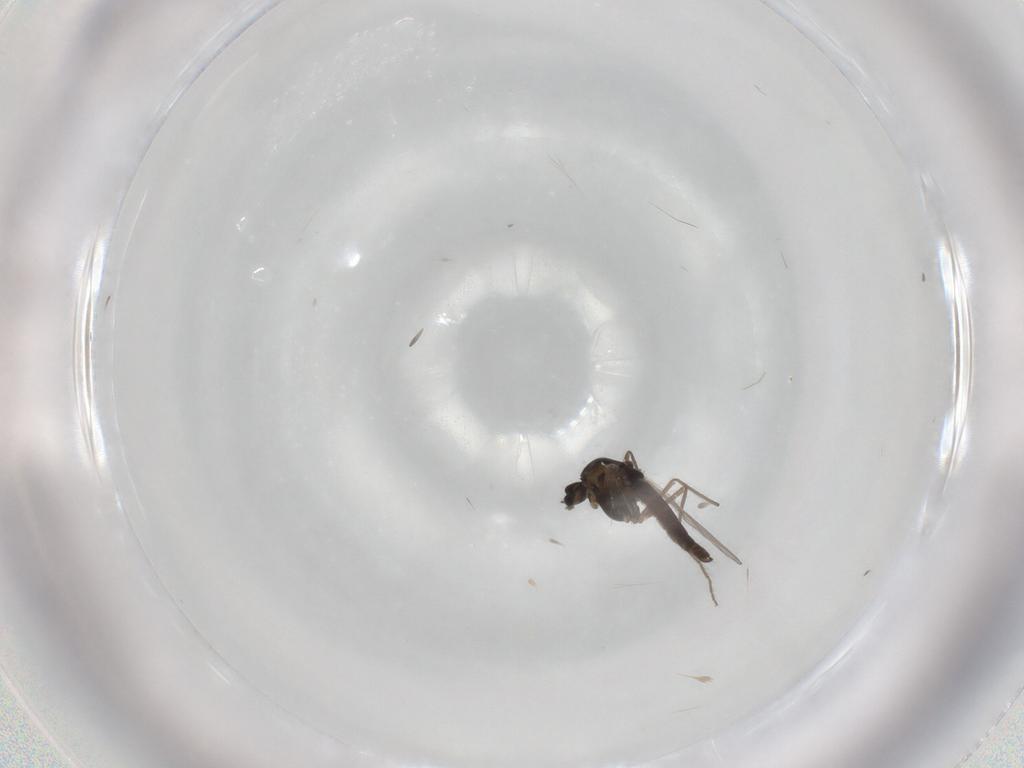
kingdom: Animalia
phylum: Arthropoda
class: Insecta
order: Diptera
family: Chironomidae
